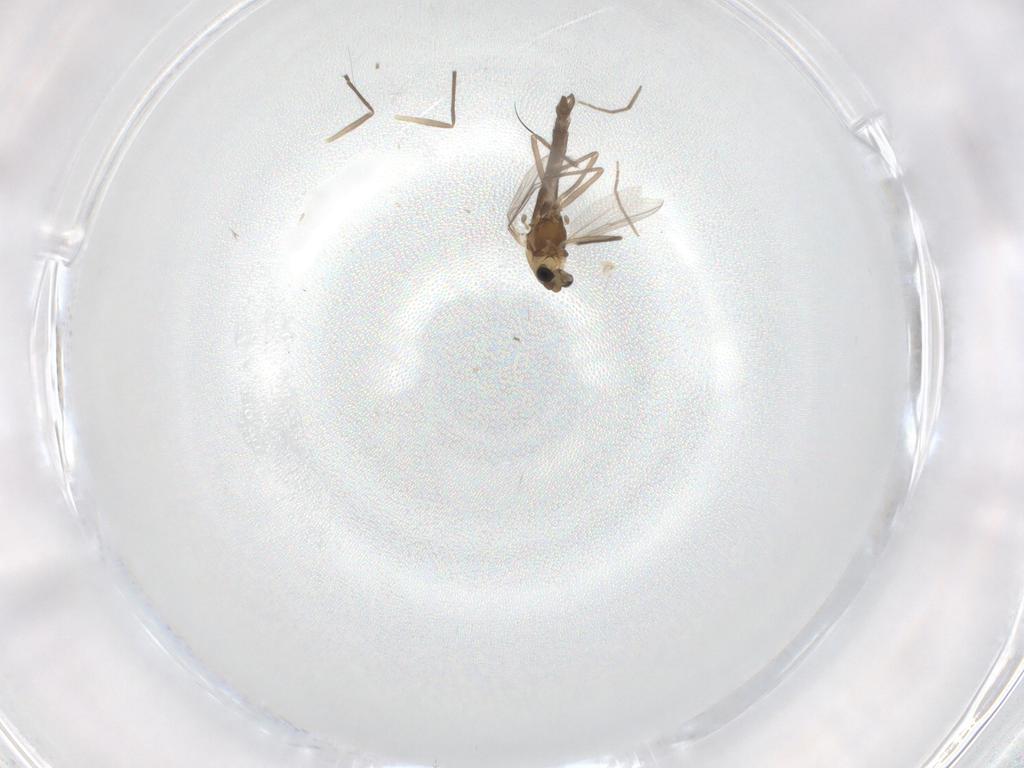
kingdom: Animalia
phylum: Arthropoda
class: Insecta
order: Diptera
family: Chironomidae
